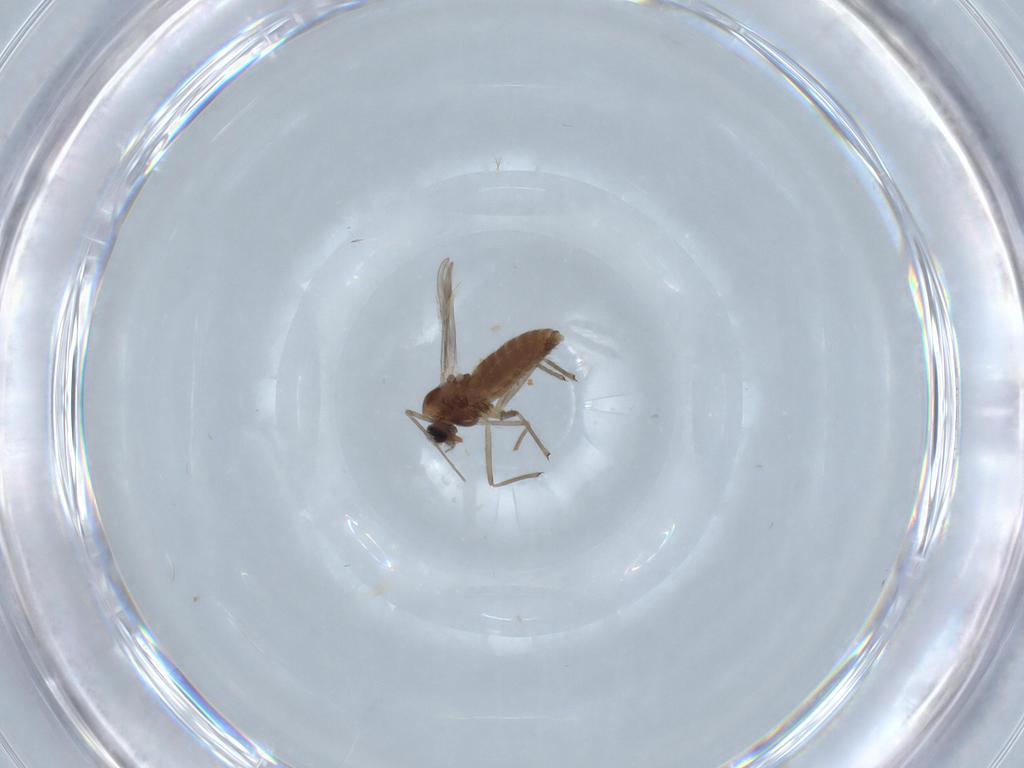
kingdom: Animalia
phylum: Arthropoda
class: Insecta
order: Diptera
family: Chironomidae
